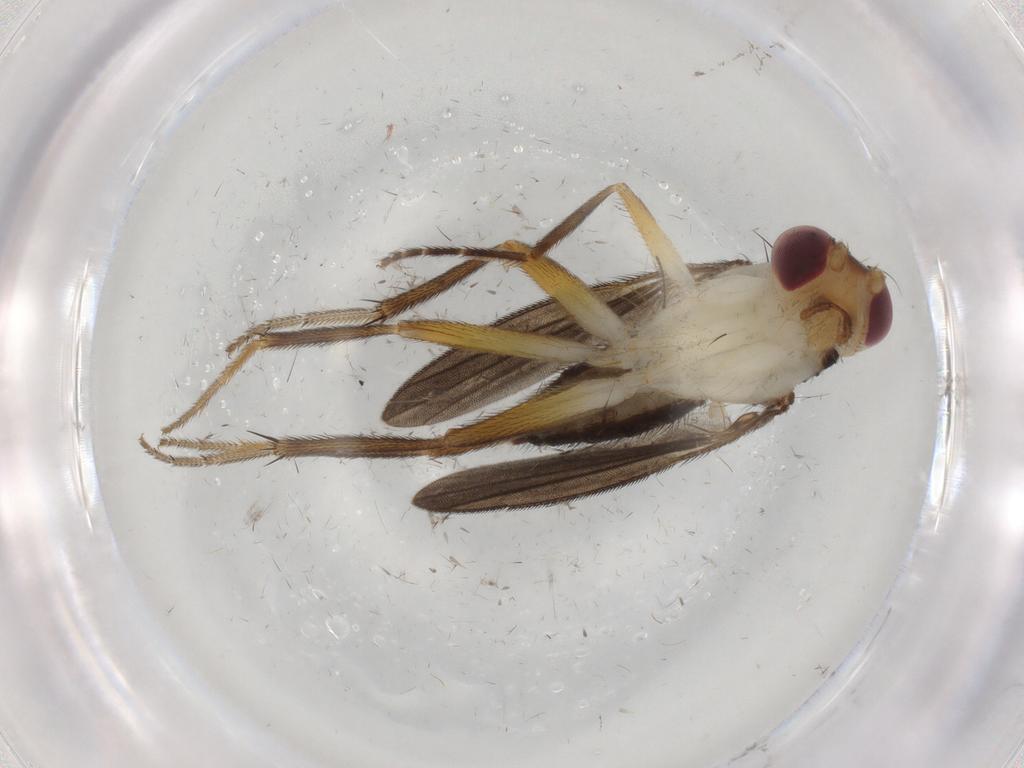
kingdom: Animalia
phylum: Arthropoda
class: Insecta
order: Diptera
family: Clusiidae
